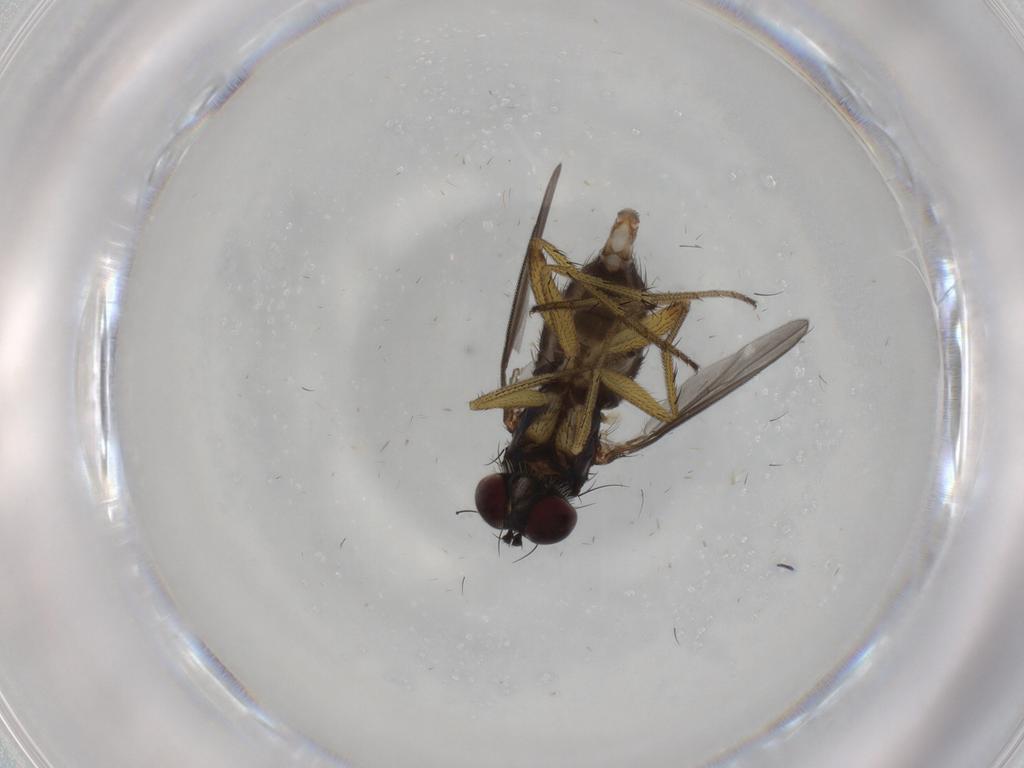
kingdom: Animalia
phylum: Arthropoda
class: Insecta
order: Diptera
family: Dolichopodidae
